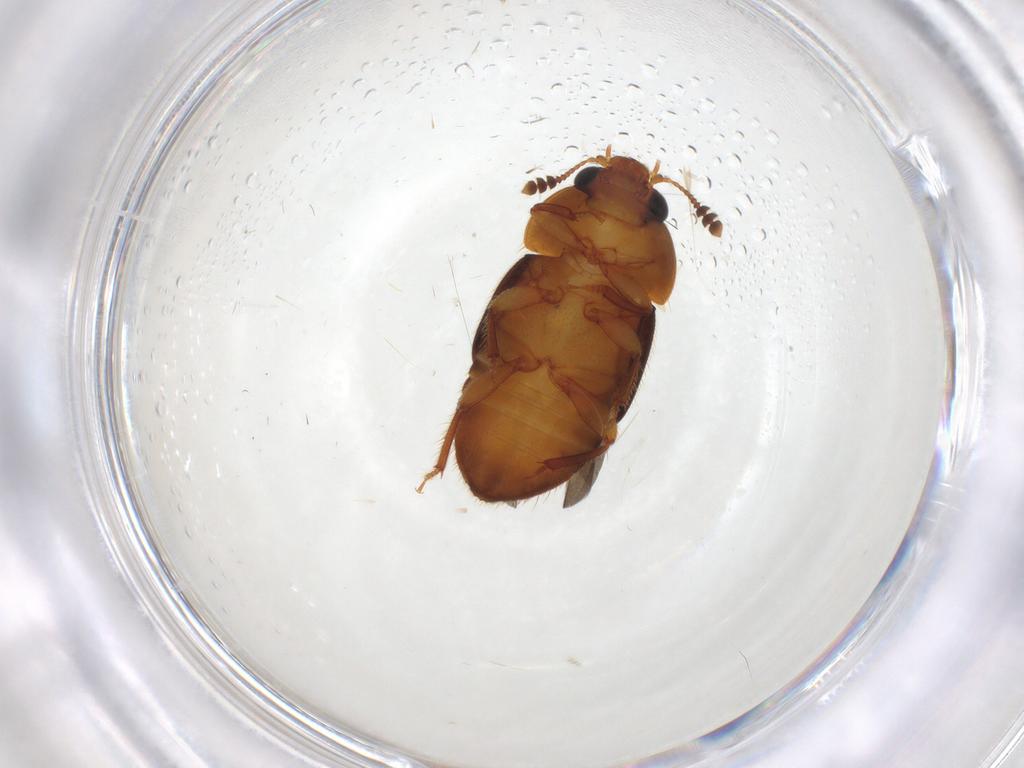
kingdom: Animalia
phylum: Arthropoda
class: Insecta
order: Coleoptera
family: Nitidulidae
